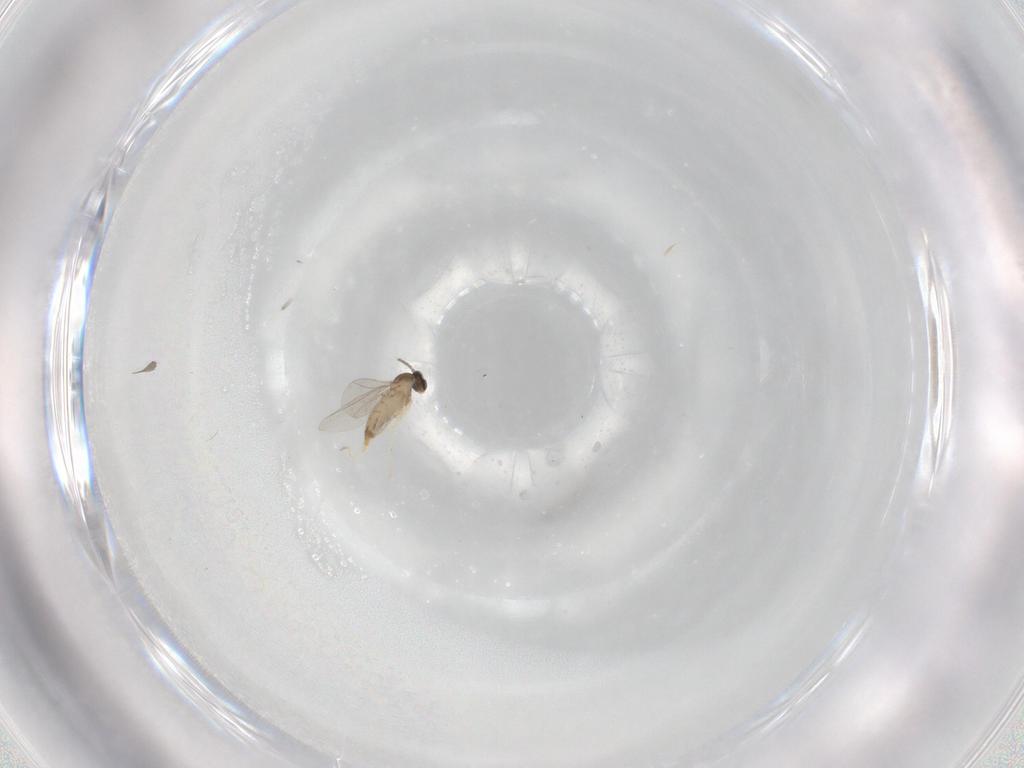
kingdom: Animalia
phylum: Arthropoda
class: Insecta
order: Diptera
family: Cecidomyiidae
